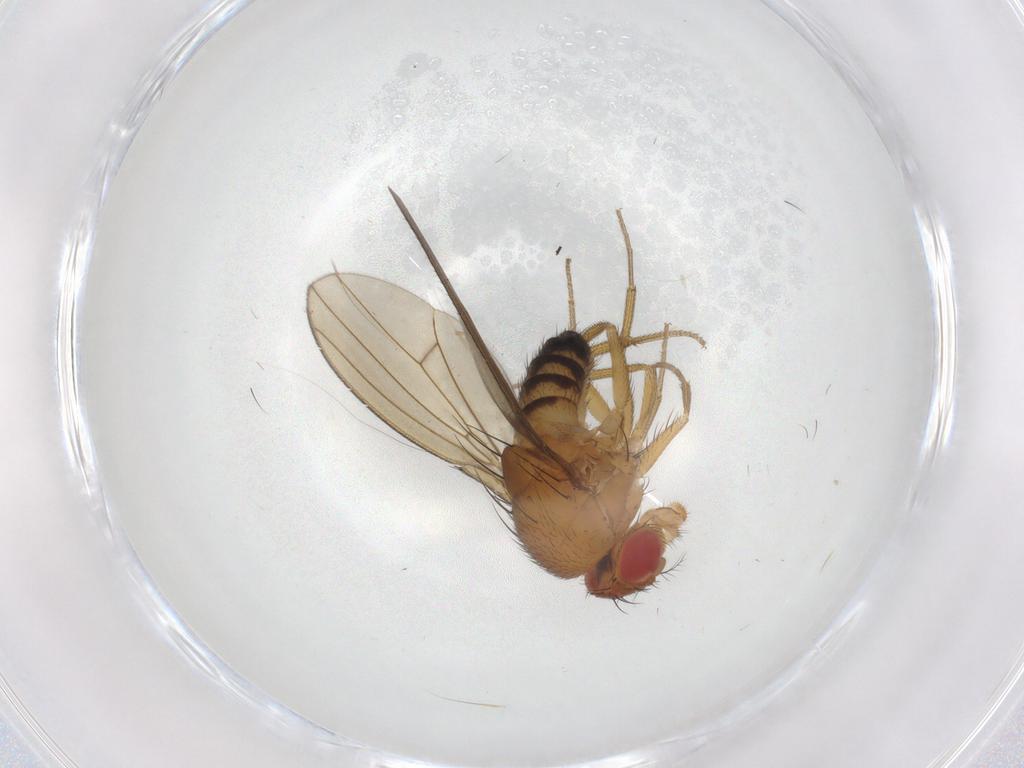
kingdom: Animalia
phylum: Arthropoda
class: Insecta
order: Diptera
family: Drosophilidae
